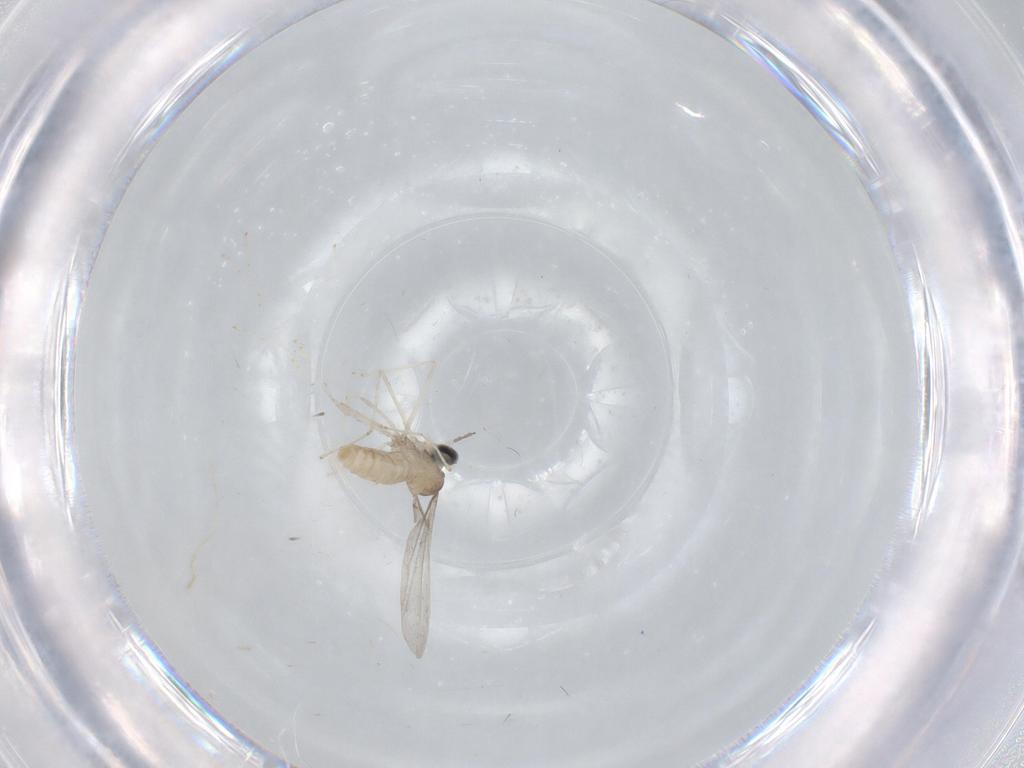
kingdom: Animalia
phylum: Arthropoda
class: Insecta
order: Diptera
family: Cecidomyiidae
